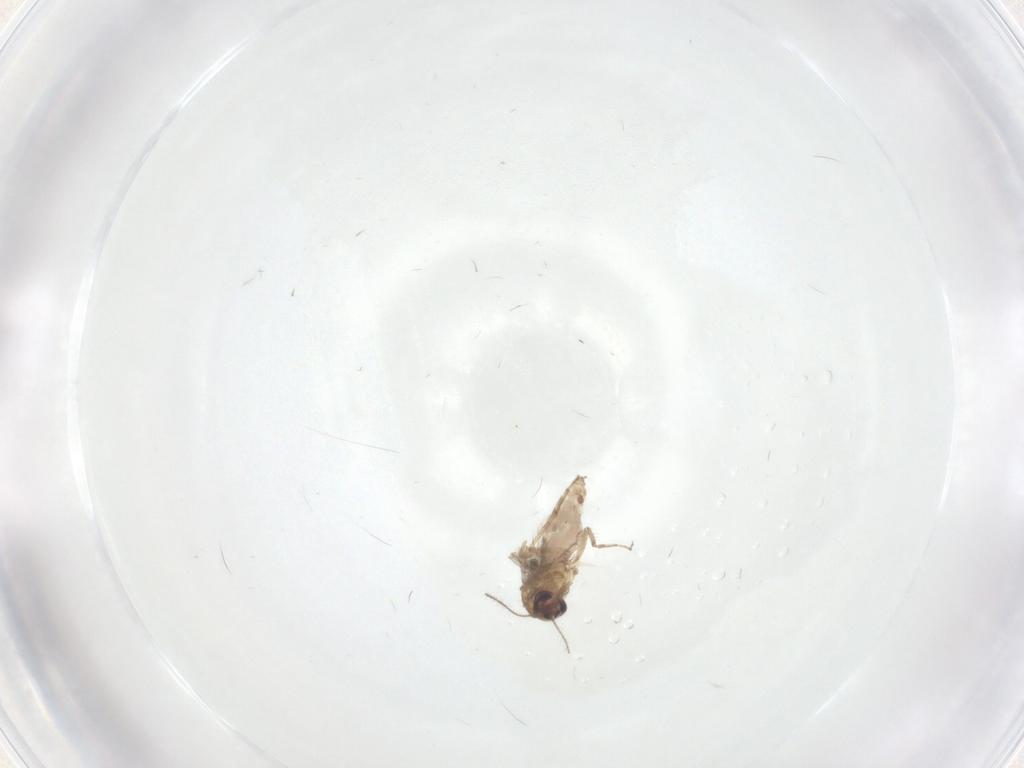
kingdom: Animalia
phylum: Arthropoda
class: Insecta
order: Diptera
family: Ceratopogonidae
